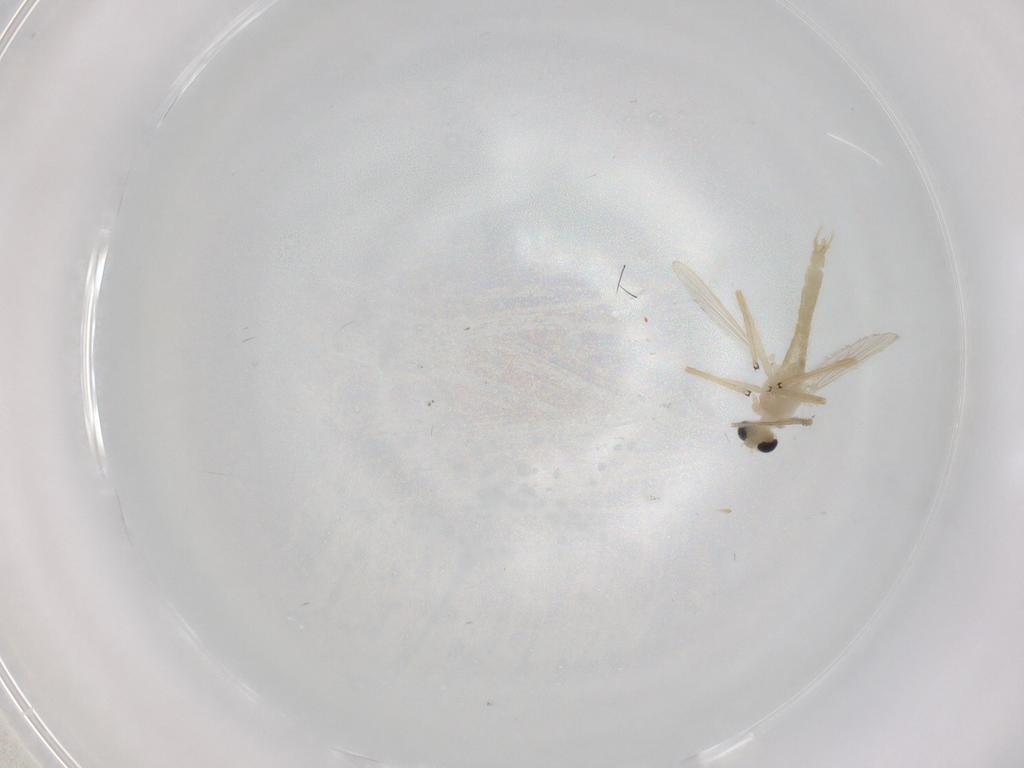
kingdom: Animalia
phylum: Arthropoda
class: Insecta
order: Diptera
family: Chironomidae
